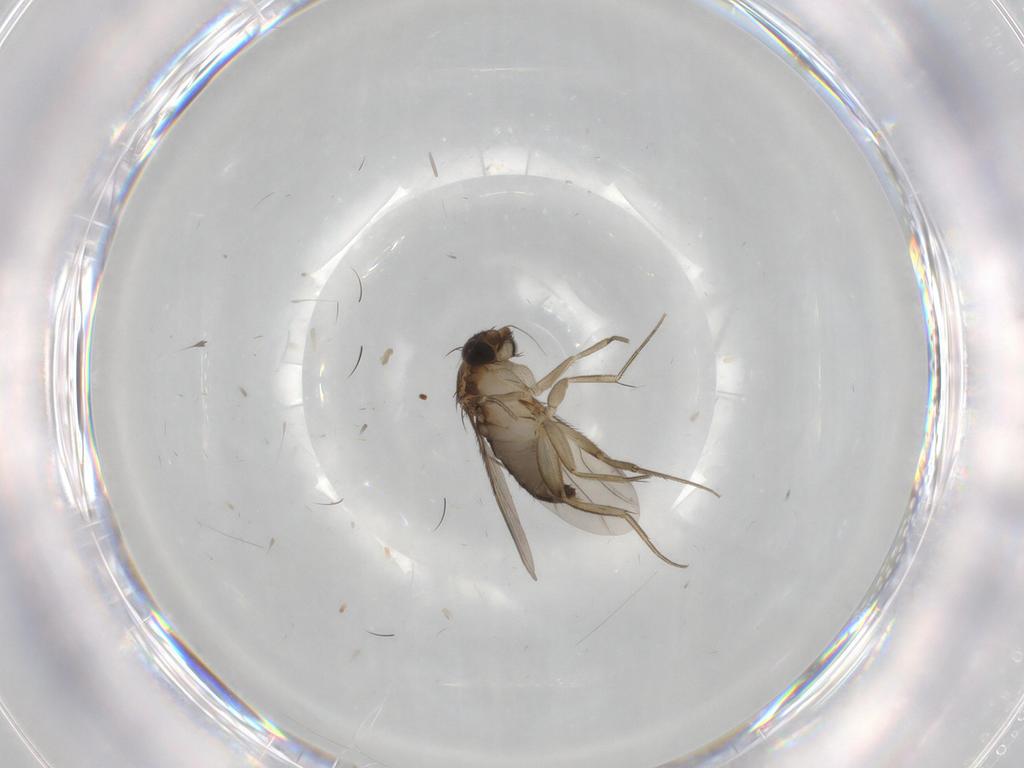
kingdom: Animalia
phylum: Arthropoda
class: Insecta
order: Diptera
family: Phoridae
